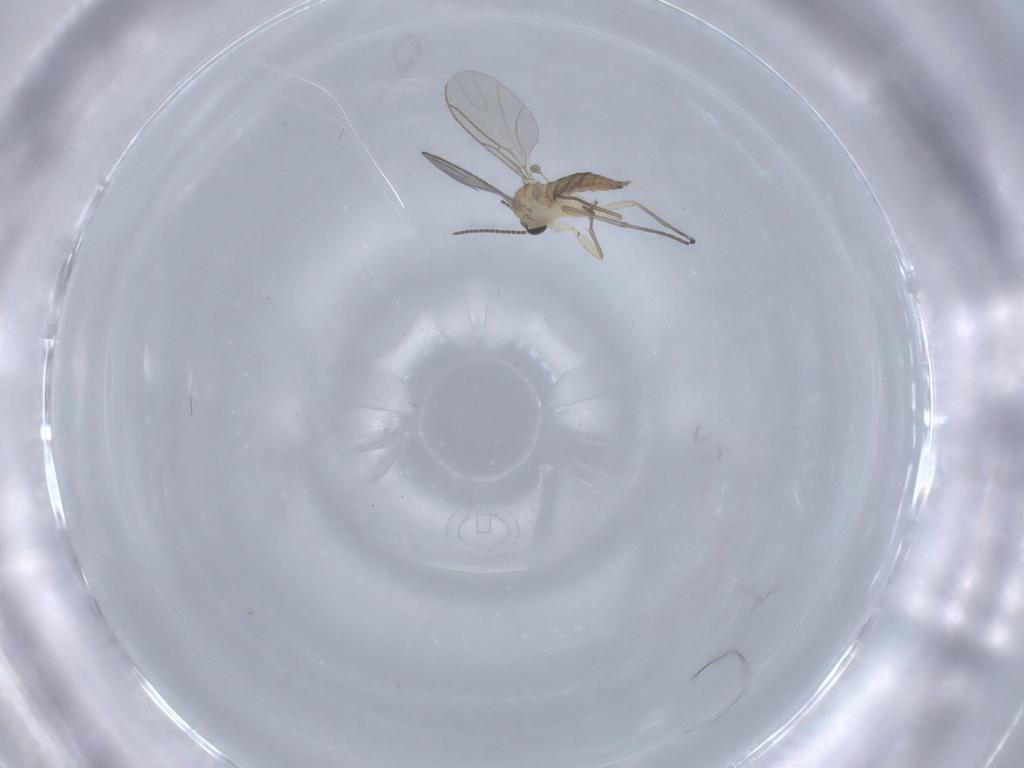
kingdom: Animalia
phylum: Arthropoda
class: Insecta
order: Diptera
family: Sciaridae
